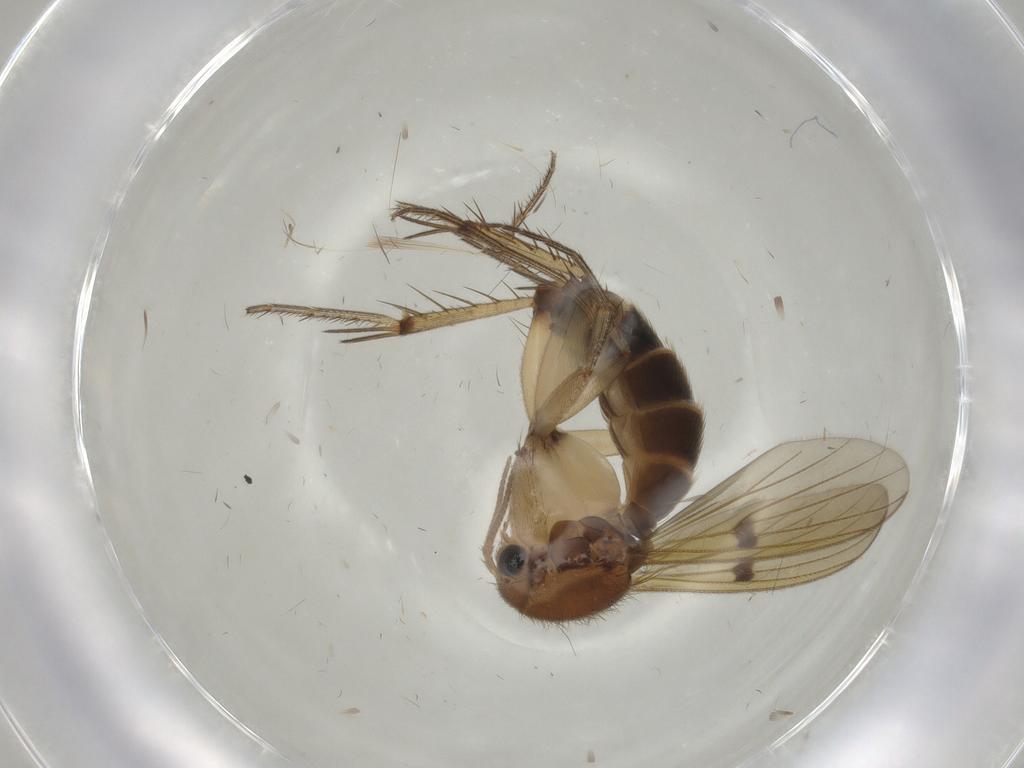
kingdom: Animalia
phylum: Arthropoda
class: Insecta
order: Diptera
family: Mycetophilidae
